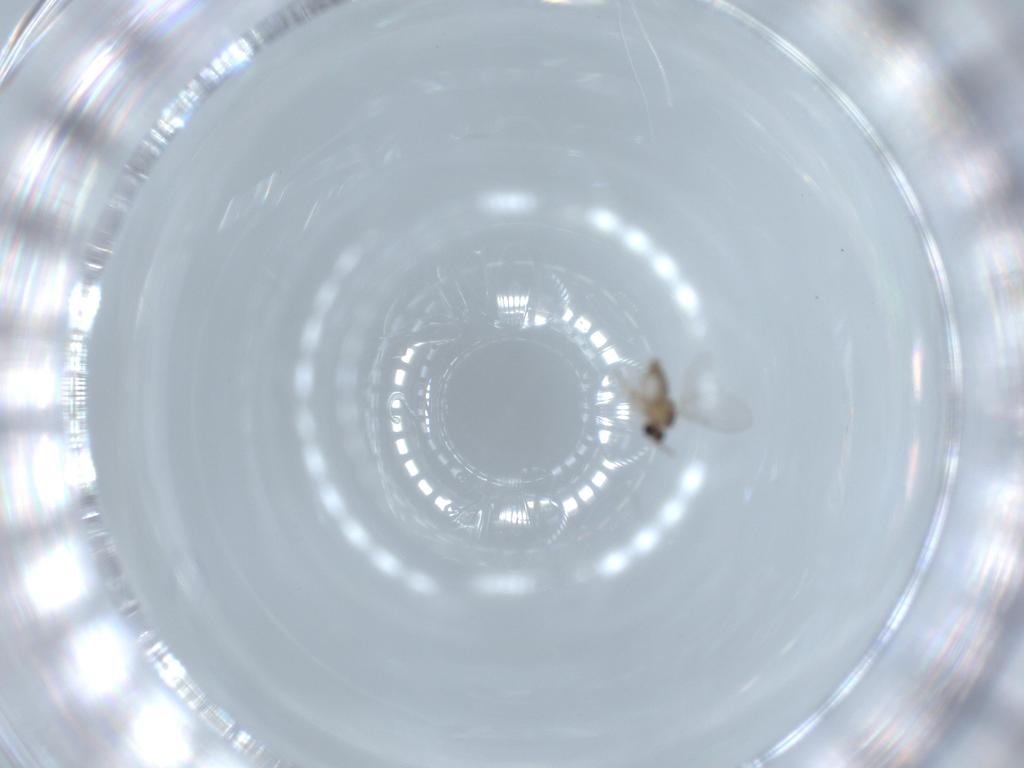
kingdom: Animalia
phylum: Arthropoda
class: Insecta
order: Diptera
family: Cecidomyiidae
